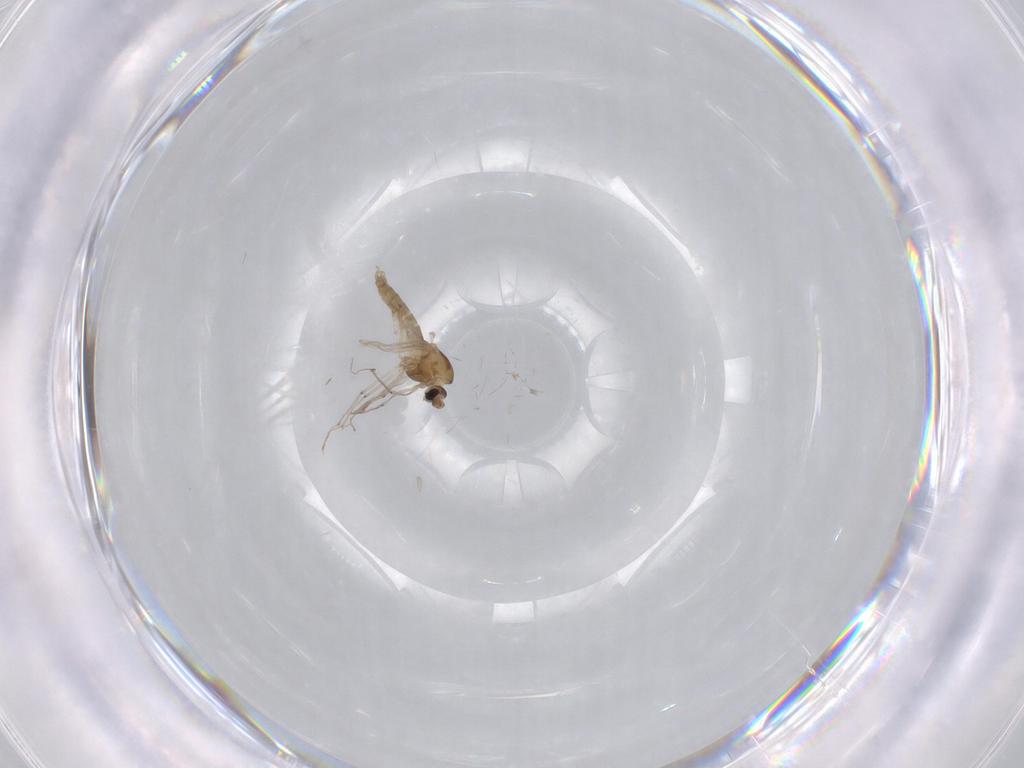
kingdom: Animalia
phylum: Arthropoda
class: Insecta
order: Diptera
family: Chironomidae
